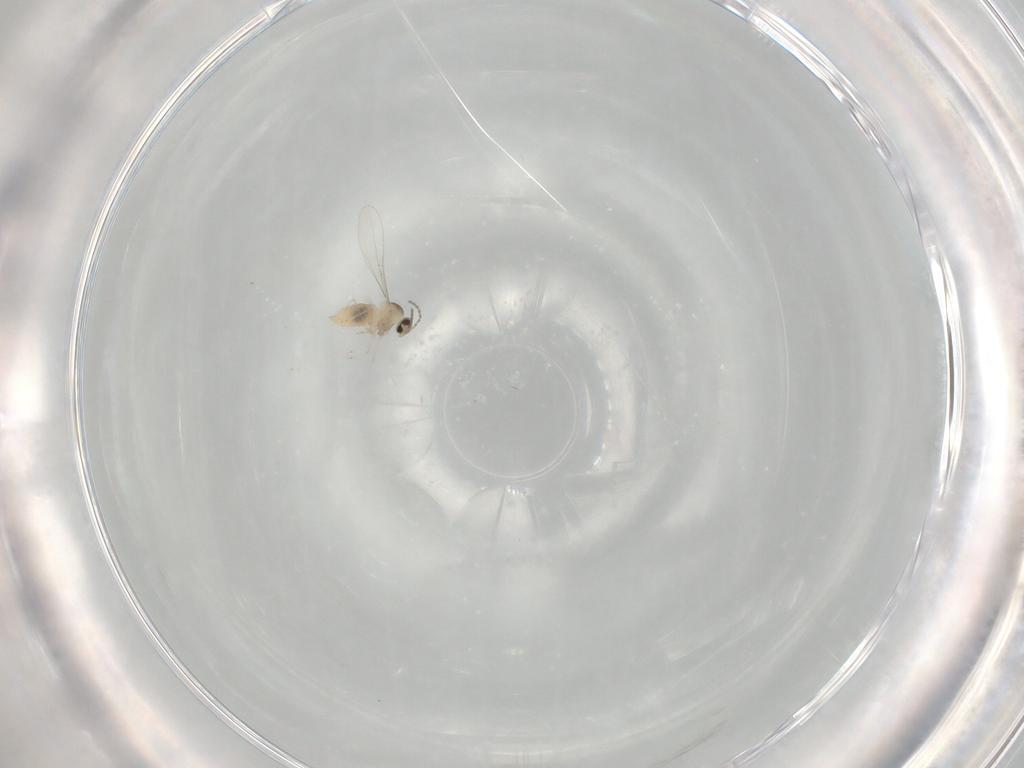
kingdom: Animalia
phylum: Arthropoda
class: Insecta
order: Diptera
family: Cecidomyiidae
